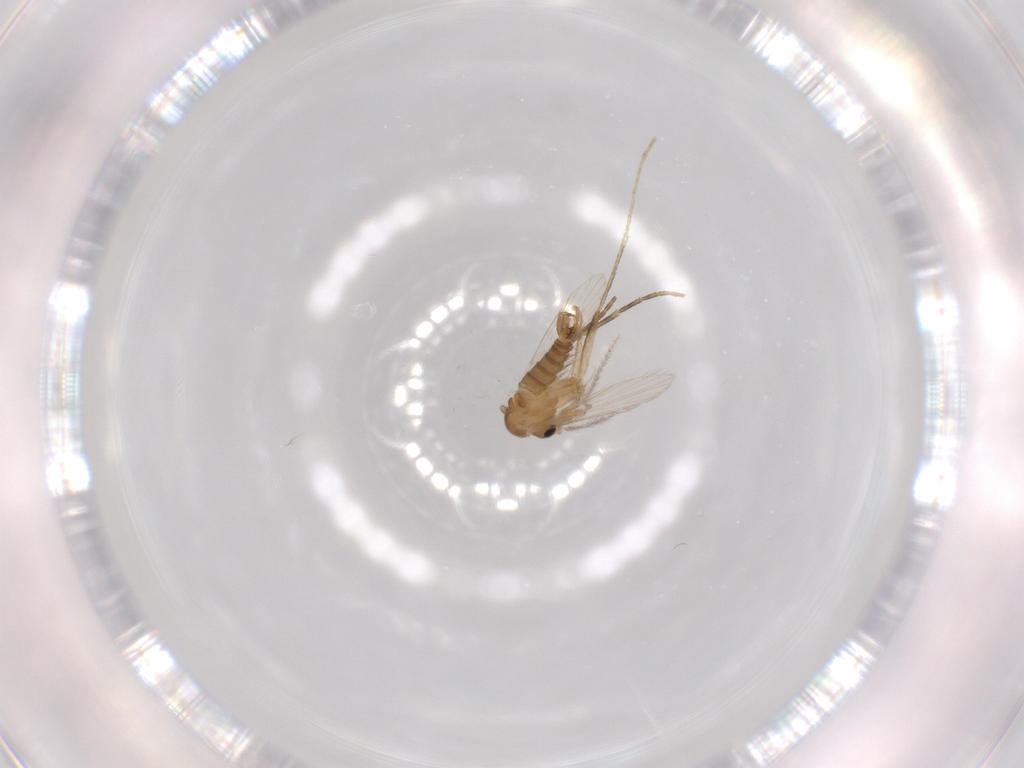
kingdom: Animalia
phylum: Arthropoda
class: Insecta
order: Diptera
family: Psychodidae
